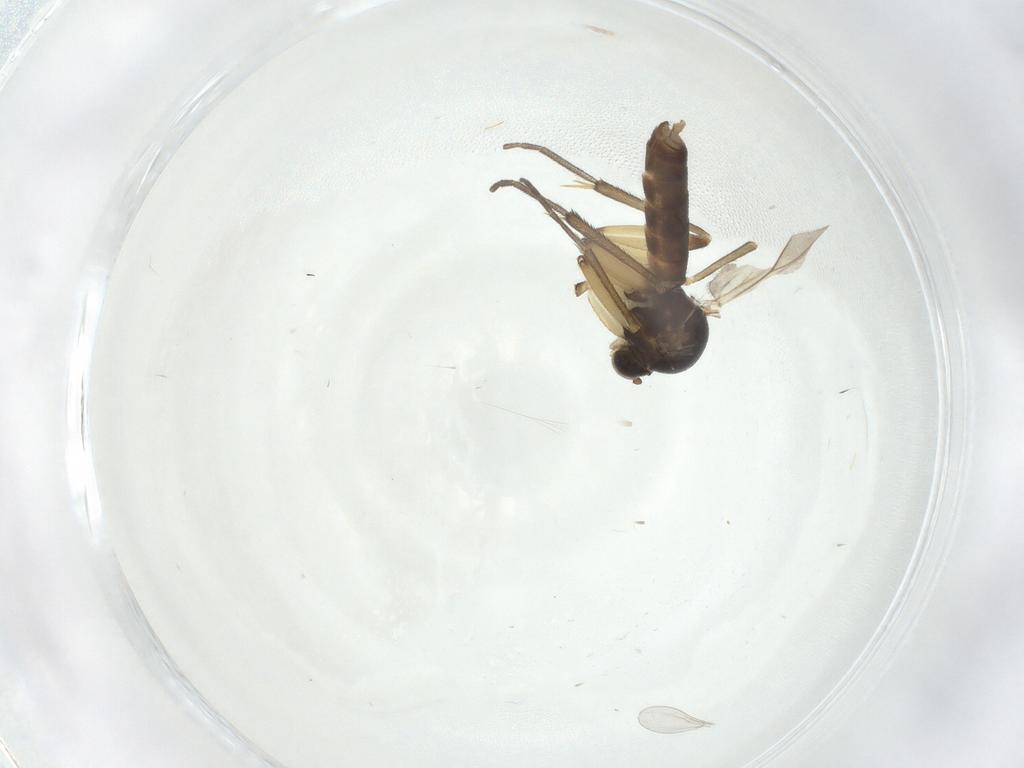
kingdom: Animalia
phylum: Arthropoda
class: Insecta
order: Diptera
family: Cecidomyiidae
